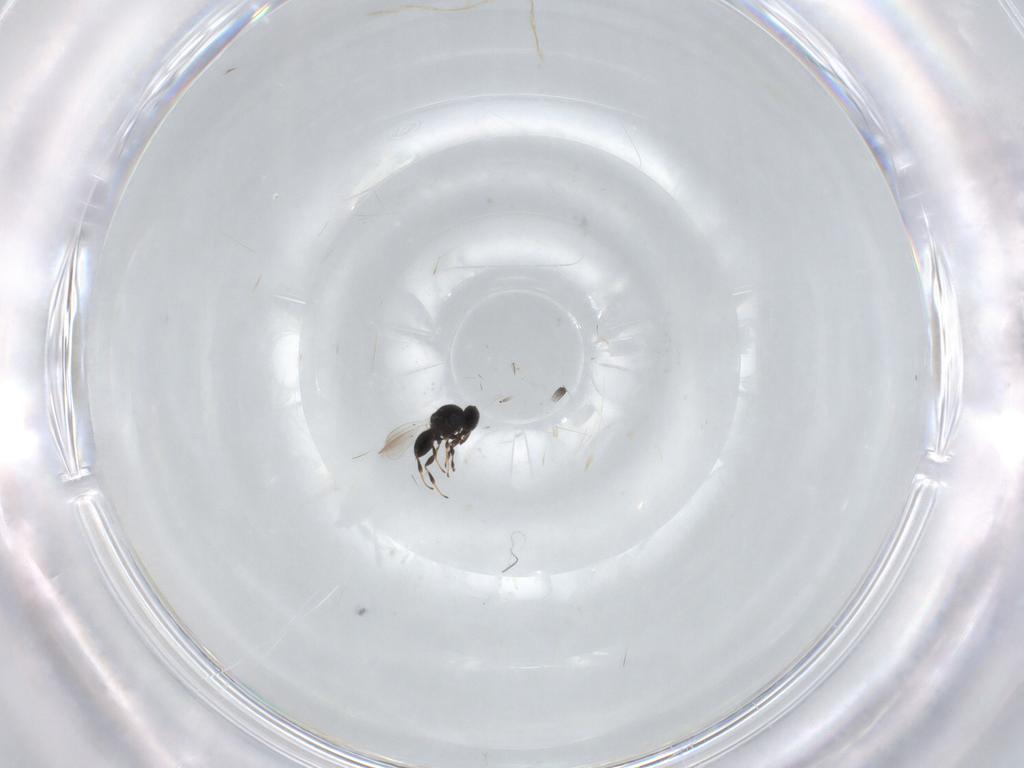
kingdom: Animalia
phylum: Arthropoda
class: Insecta
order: Hymenoptera
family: Platygastridae
